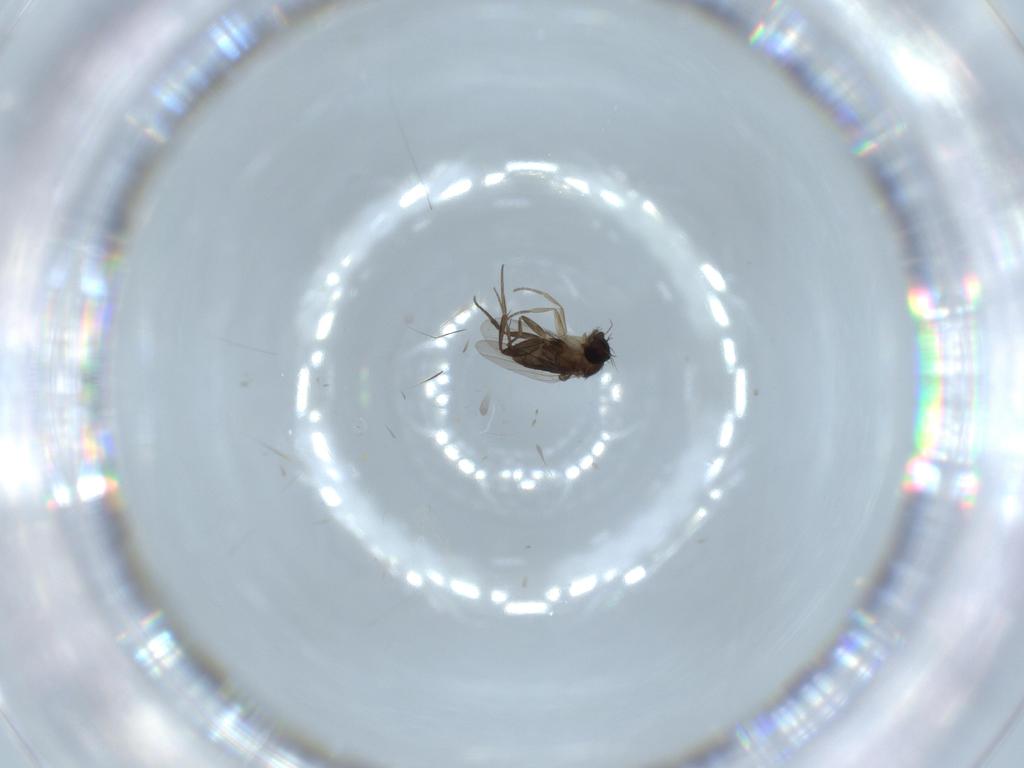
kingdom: Animalia
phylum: Arthropoda
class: Insecta
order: Diptera
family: Phoridae
